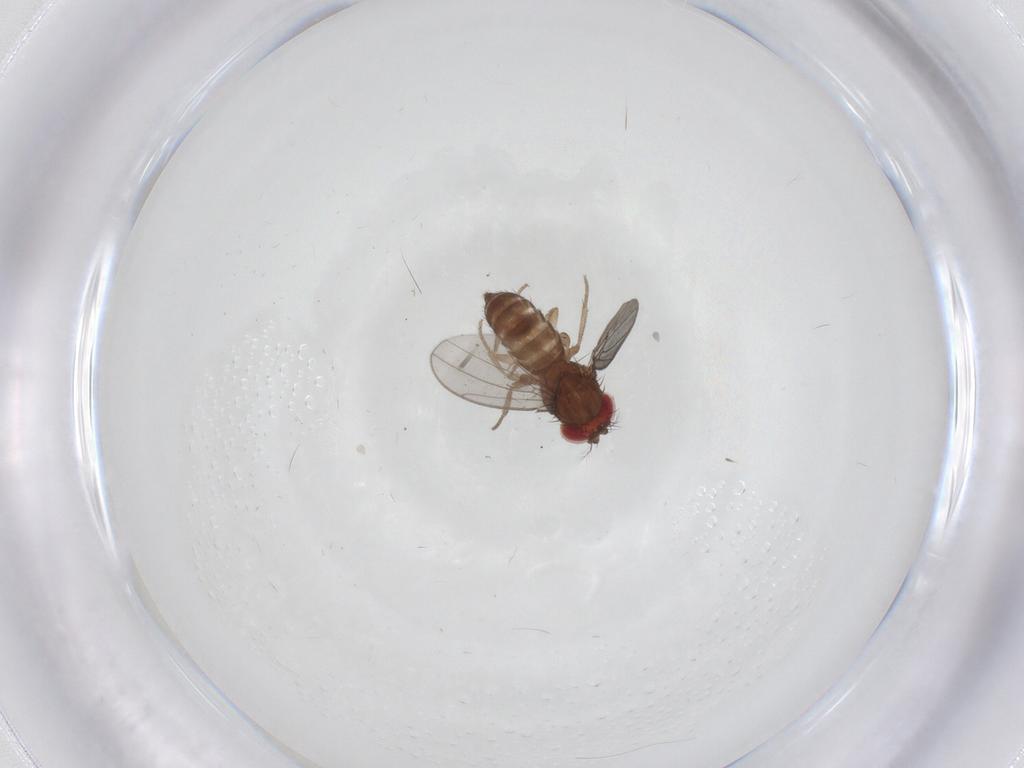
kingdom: Animalia
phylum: Arthropoda
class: Insecta
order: Diptera
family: Drosophilidae
